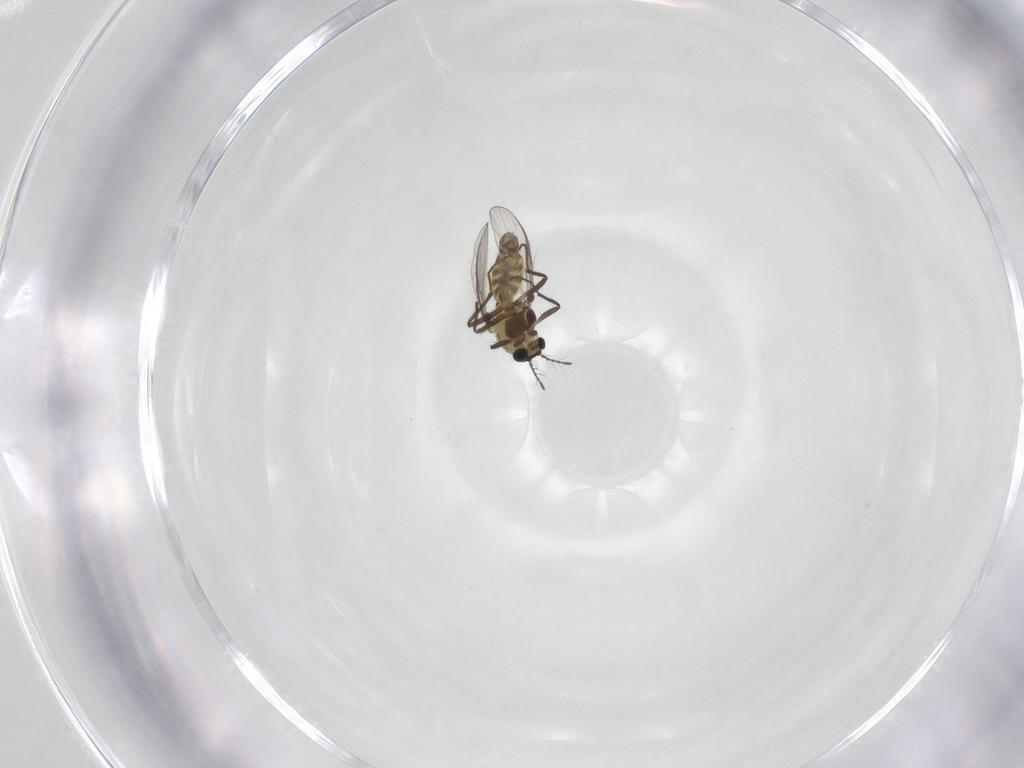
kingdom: Animalia
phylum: Arthropoda
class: Insecta
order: Diptera
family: Chironomidae
